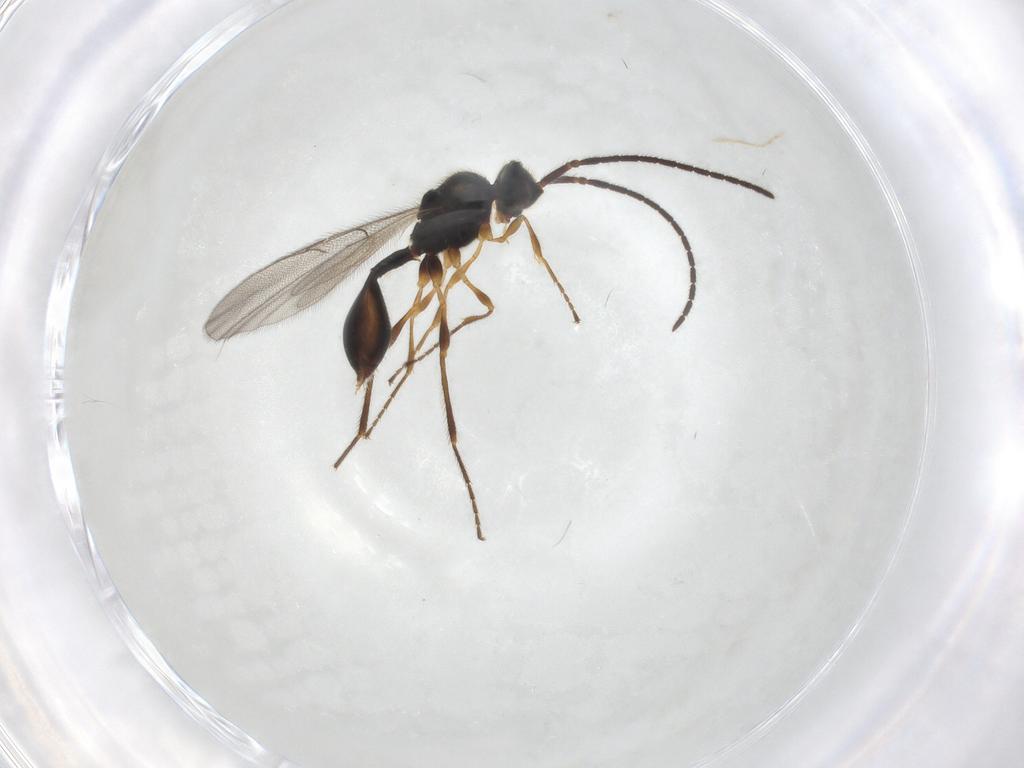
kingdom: Animalia
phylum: Arthropoda
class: Insecta
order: Hymenoptera
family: Diapriidae
